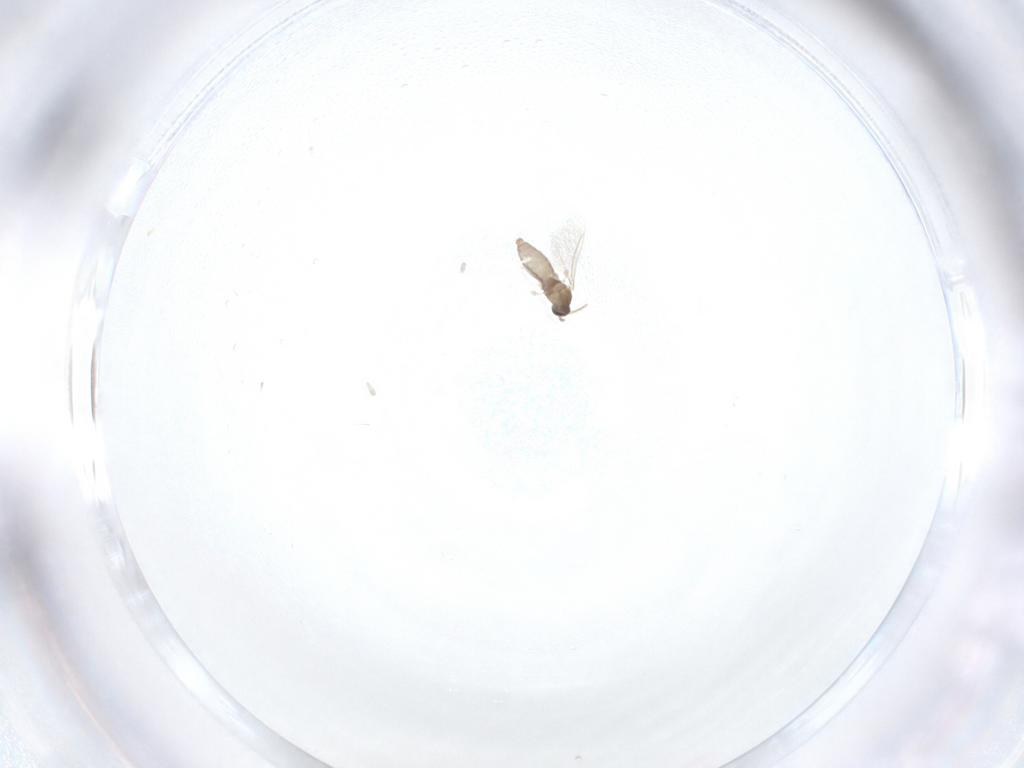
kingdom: Animalia
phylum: Arthropoda
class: Insecta
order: Diptera
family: Cecidomyiidae
